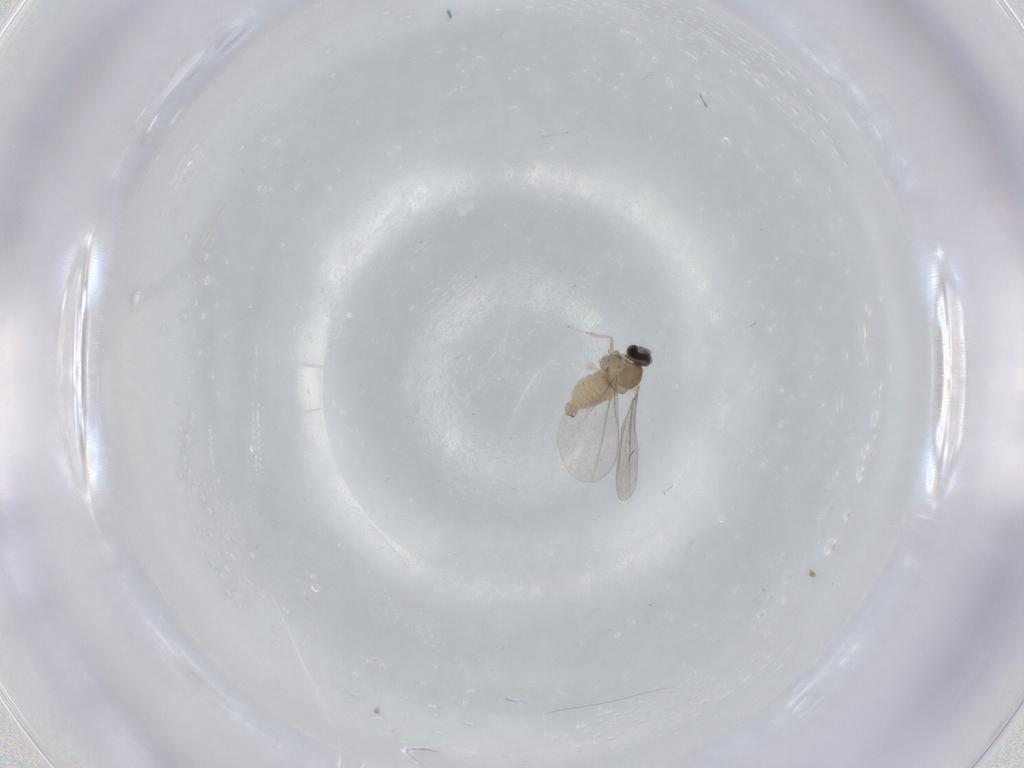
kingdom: Animalia
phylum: Arthropoda
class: Insecta
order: Diptera
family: Cecidomyiidae
